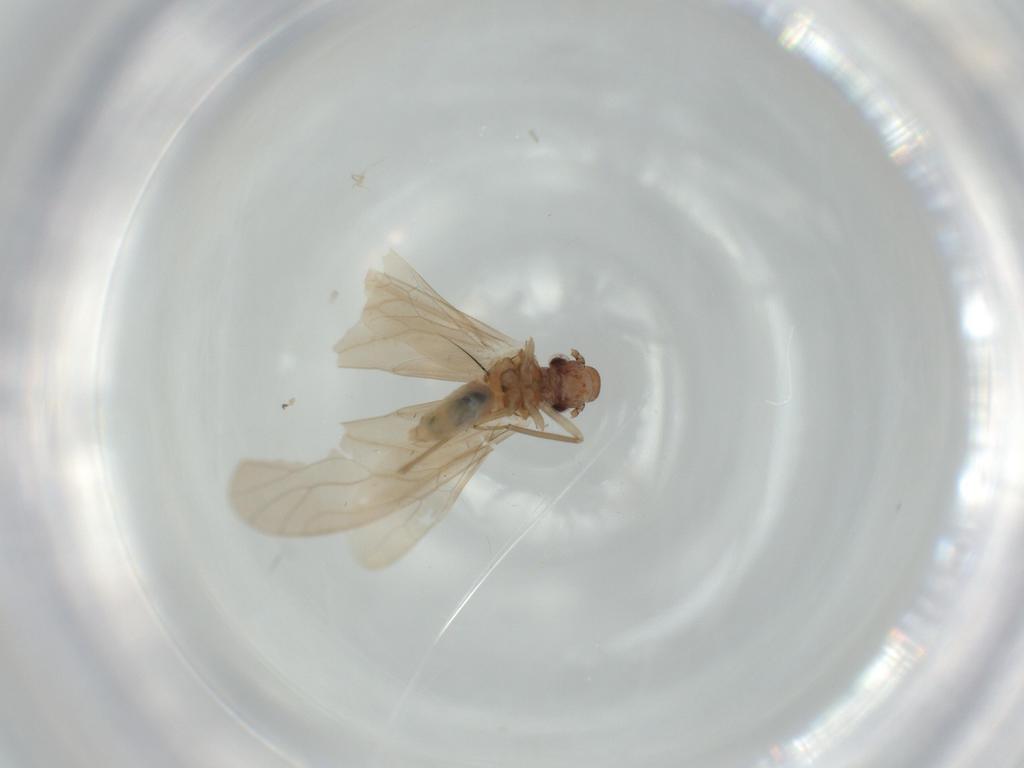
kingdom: Animalia
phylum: Arthropoda
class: Insecta
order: Psocodea
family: Caeciliusidae
